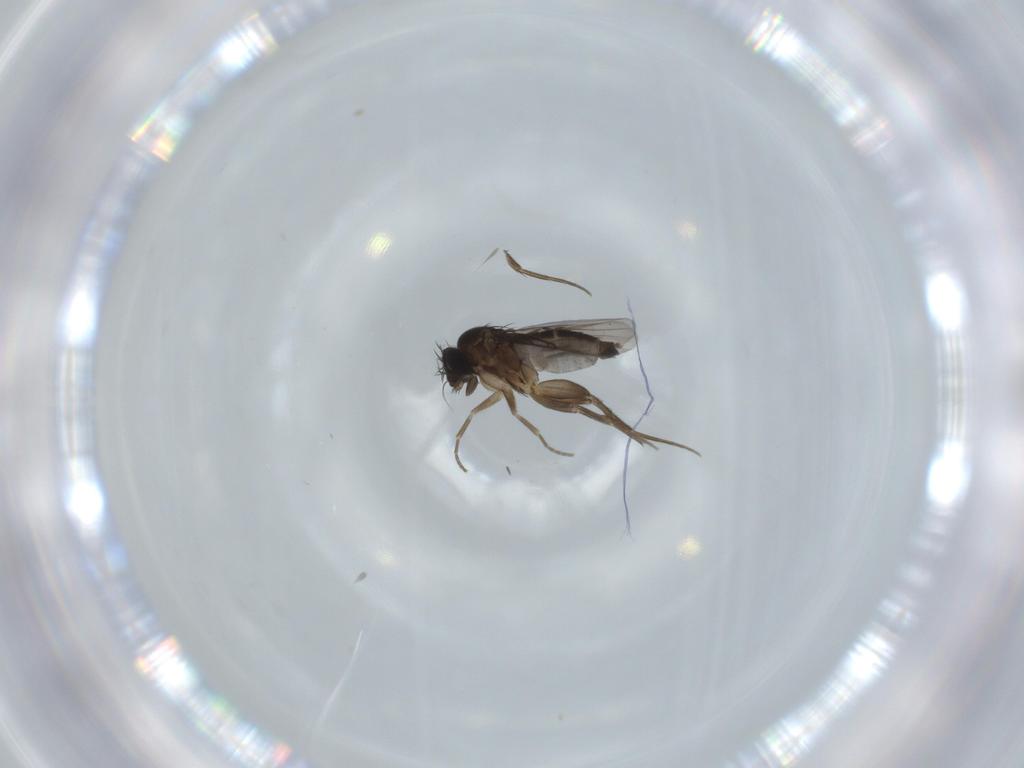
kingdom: Animalia
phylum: Arthropoda
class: Insecta
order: Diptera
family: Phoridae
